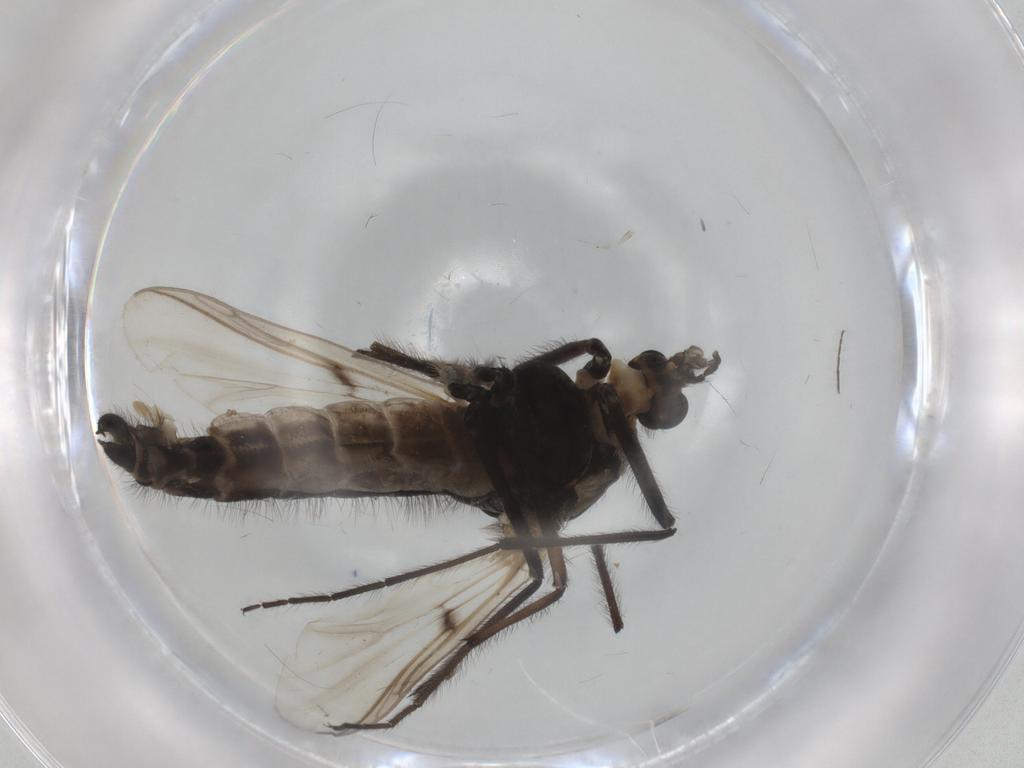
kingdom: Animalia
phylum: Arthropoda
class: Insecta
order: Diptera
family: Chironomidae
